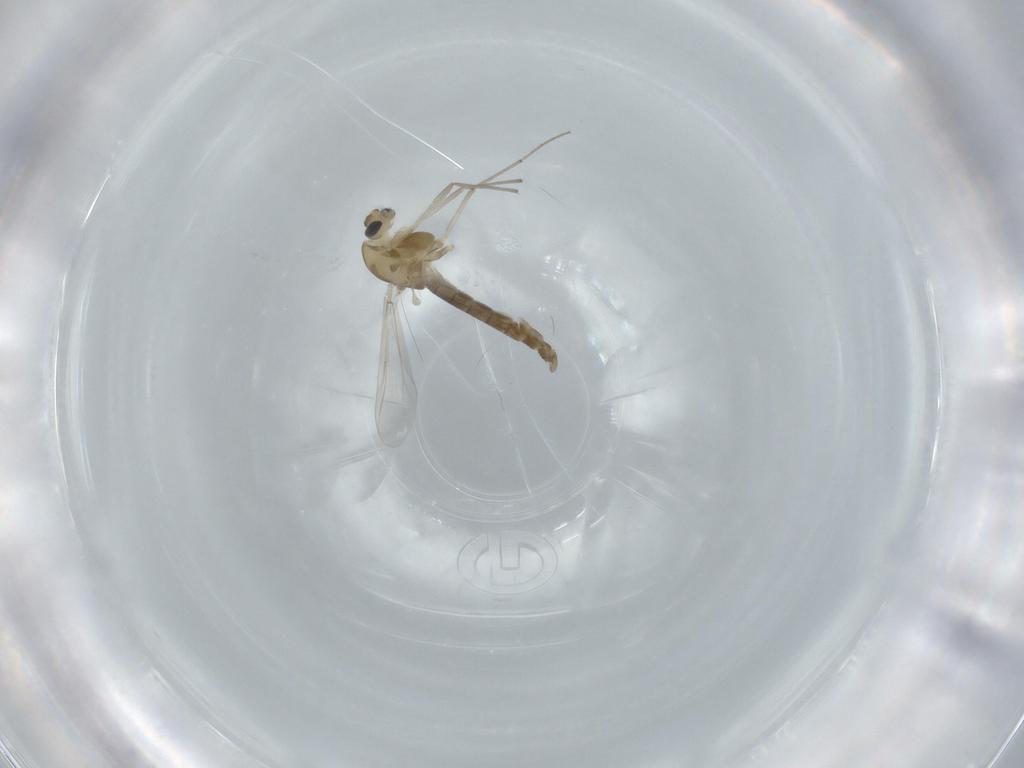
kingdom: Animalia
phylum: Arthropoda
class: Insecta
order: Diptera
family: Chironomidae
